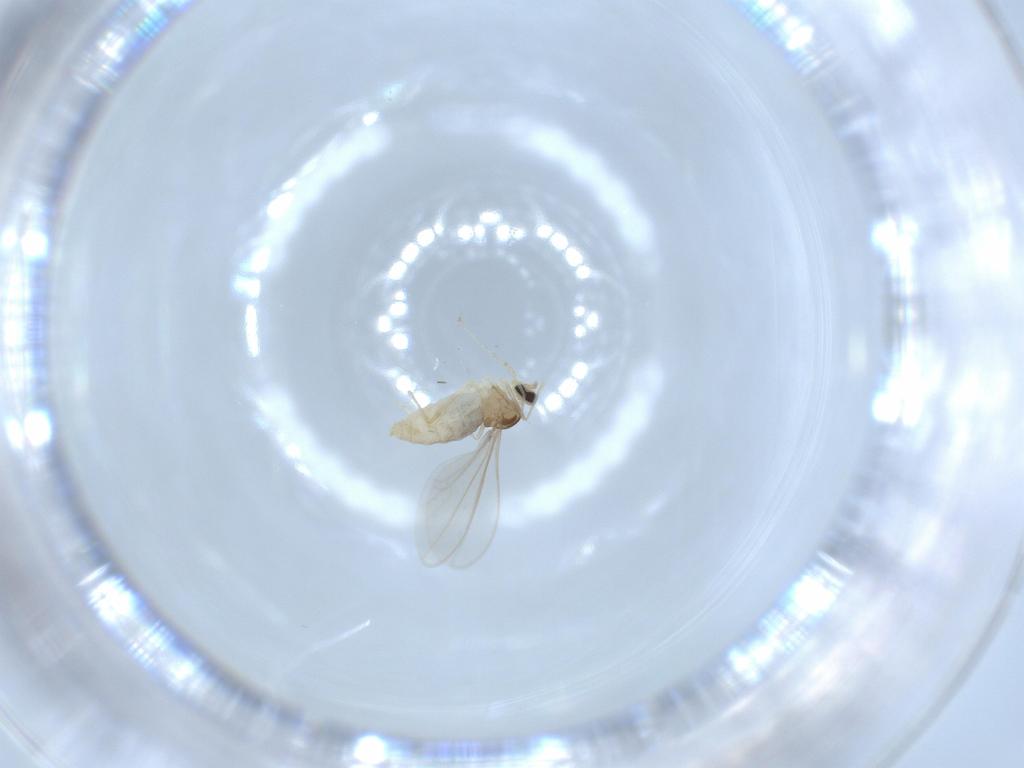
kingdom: Animalia
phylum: Arthropoda
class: Insecta
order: Diptera
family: Cecidomyiidae
